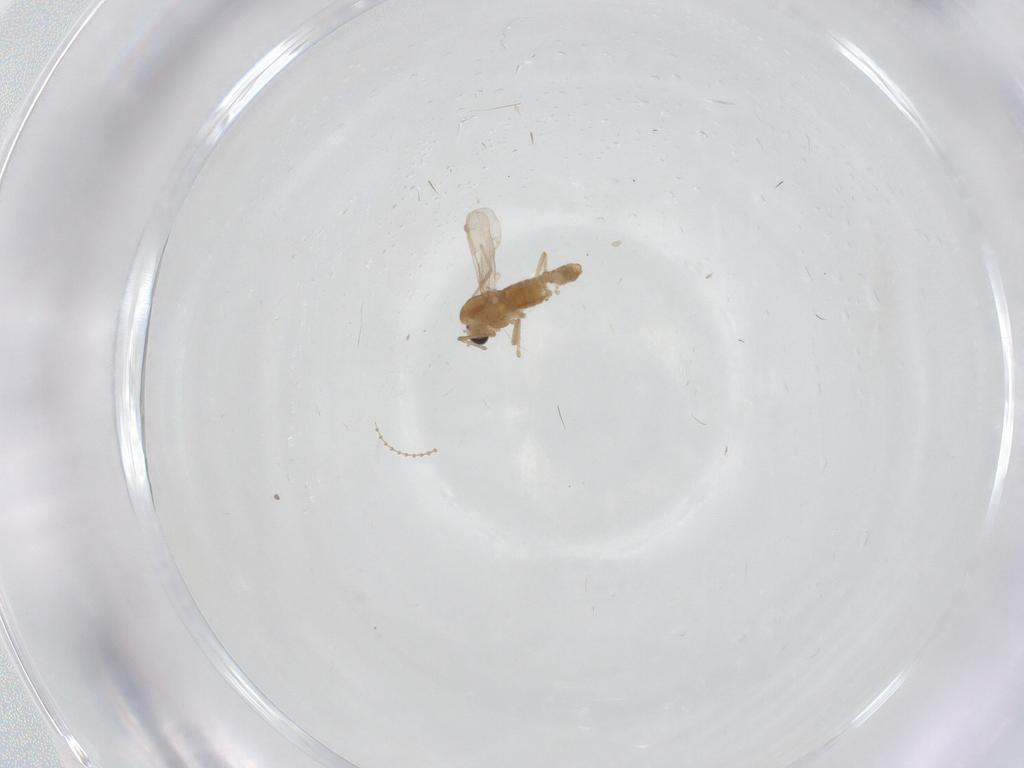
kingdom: Animalia
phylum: Arthropoda
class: Insecta
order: Diptera
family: Chironomidae
